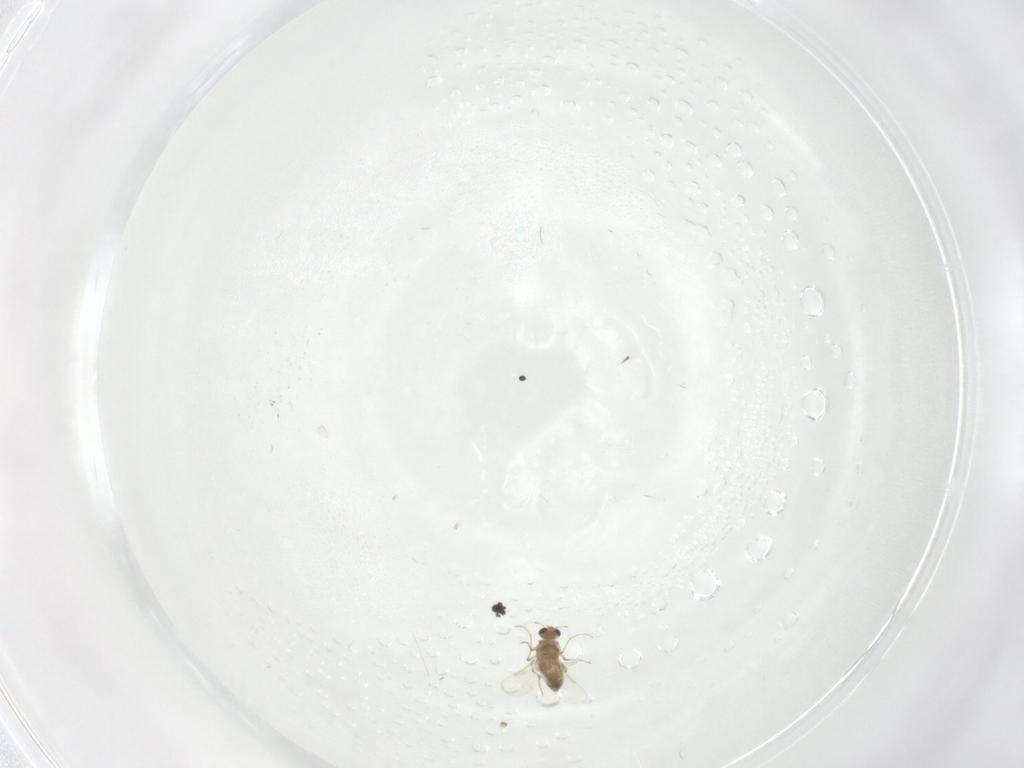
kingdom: Animalia
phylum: Arthropoda
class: Insecta
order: Diptera
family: Chironomidae
